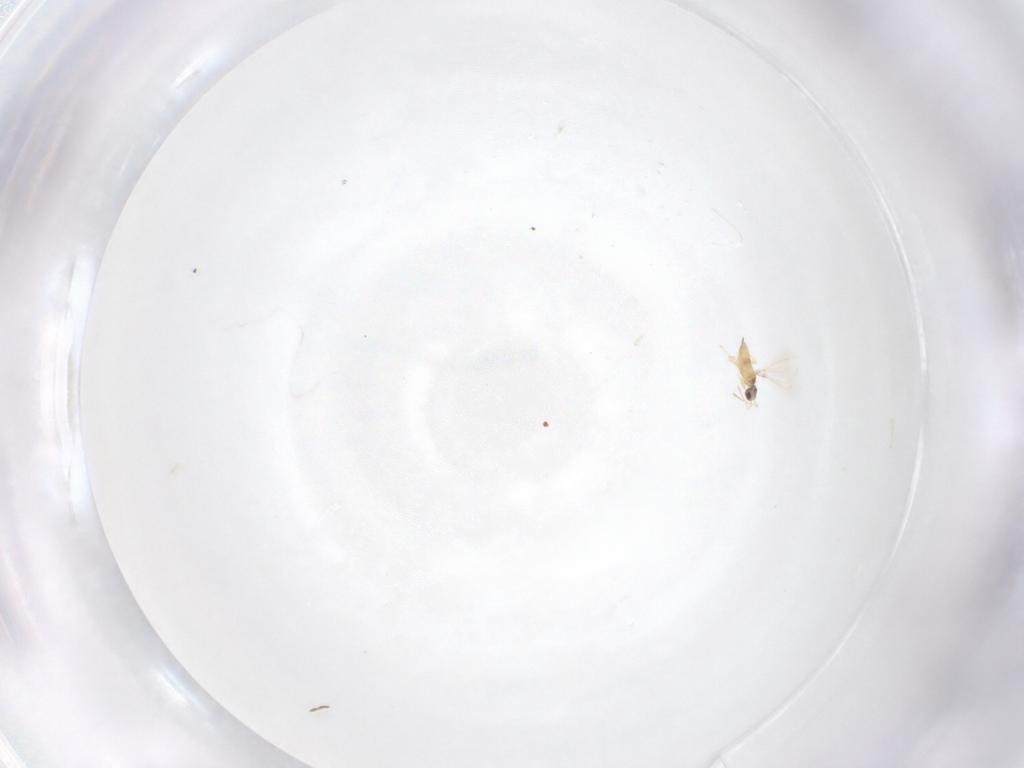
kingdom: Animalia
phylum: Arthropoda
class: Insecta
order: Hymenoptera
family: Mymaridae
